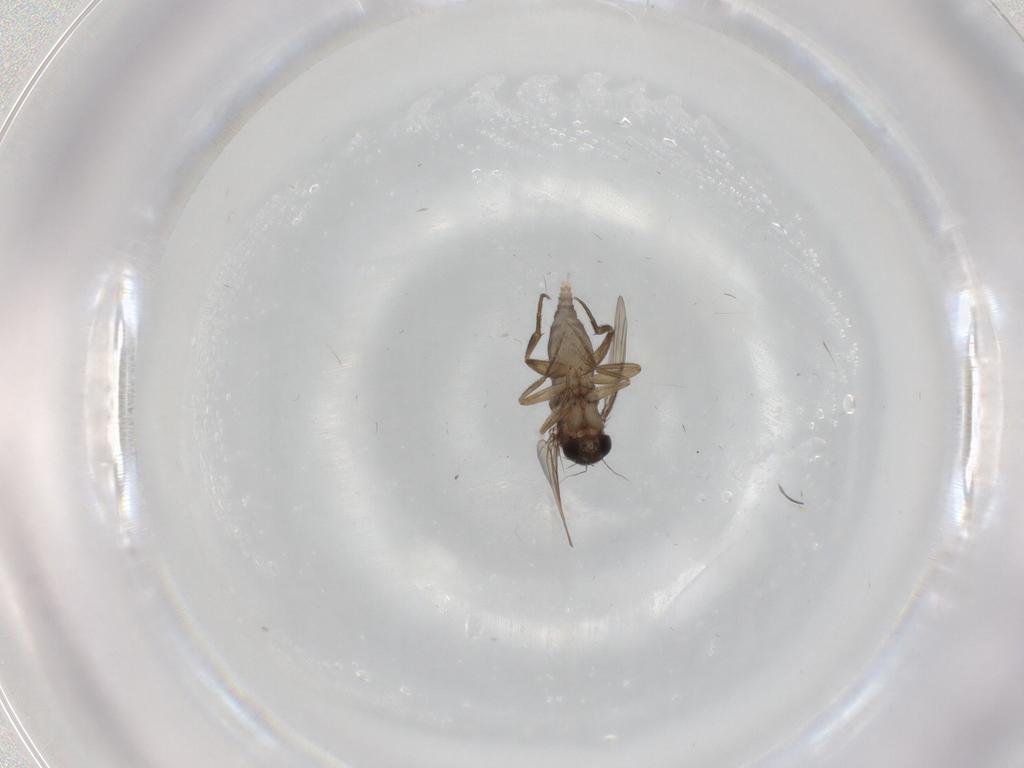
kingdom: Animalia
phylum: Arthropoda
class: Insecta
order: Diptera
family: Phoridae
